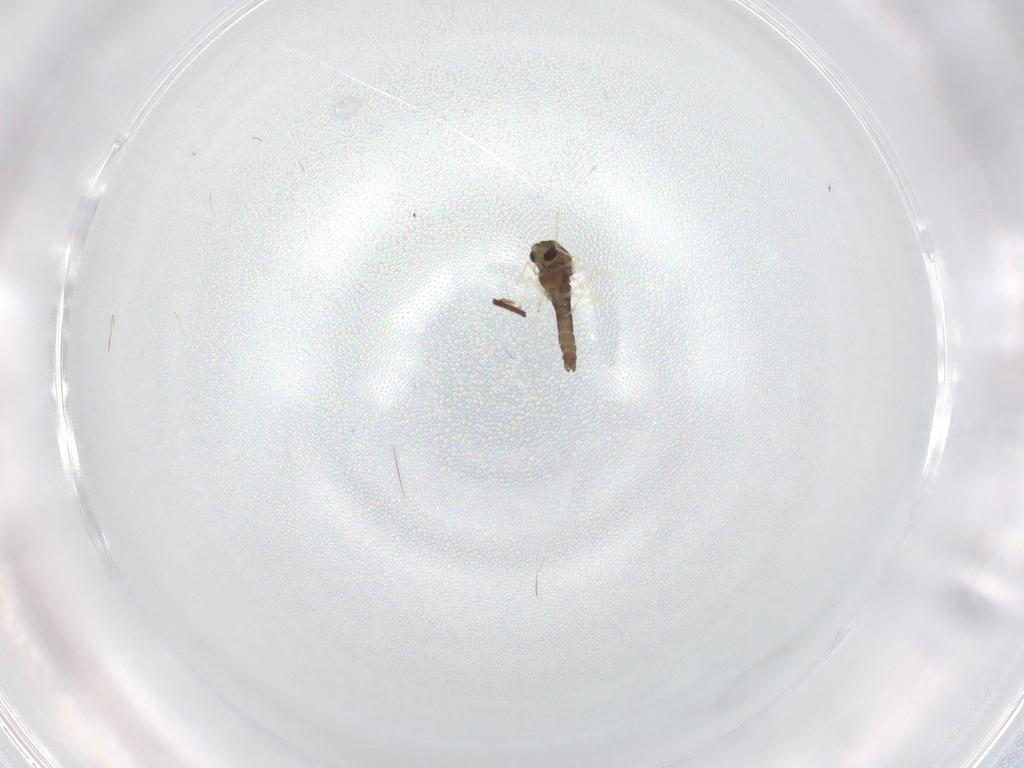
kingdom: Animalia
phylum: Arthropoda
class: Insecta
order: Diptera
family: Chironomidae
